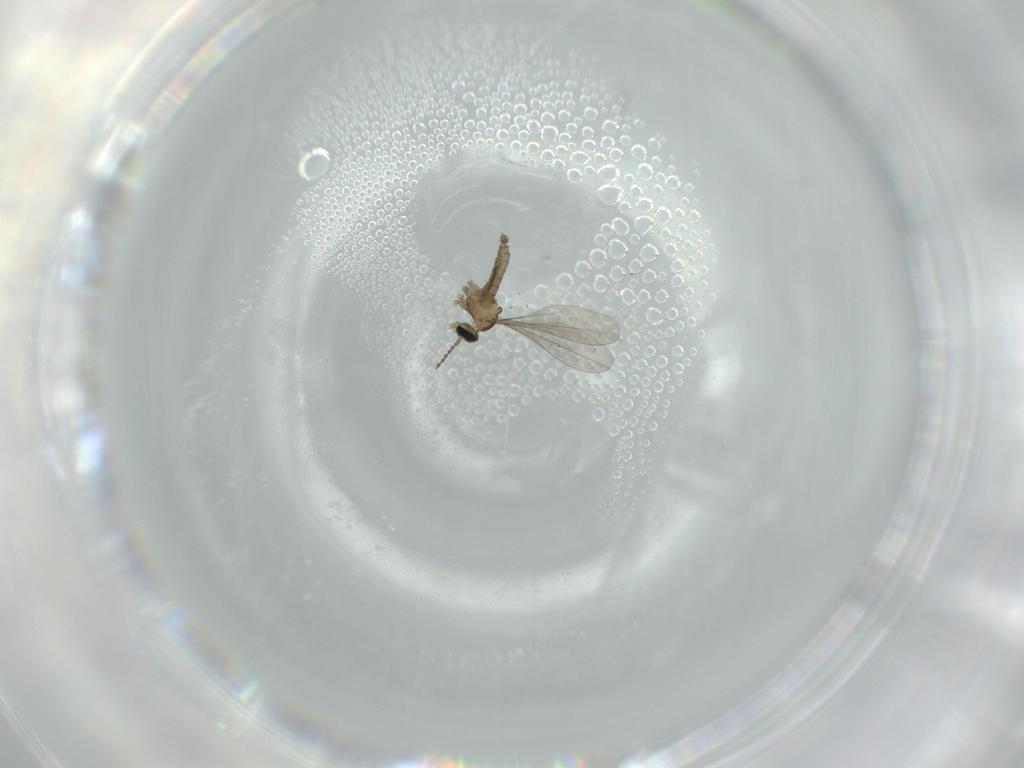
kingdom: Animalia
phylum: Arthropoda
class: Insecta
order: Diptera
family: Cecidomyiidae
